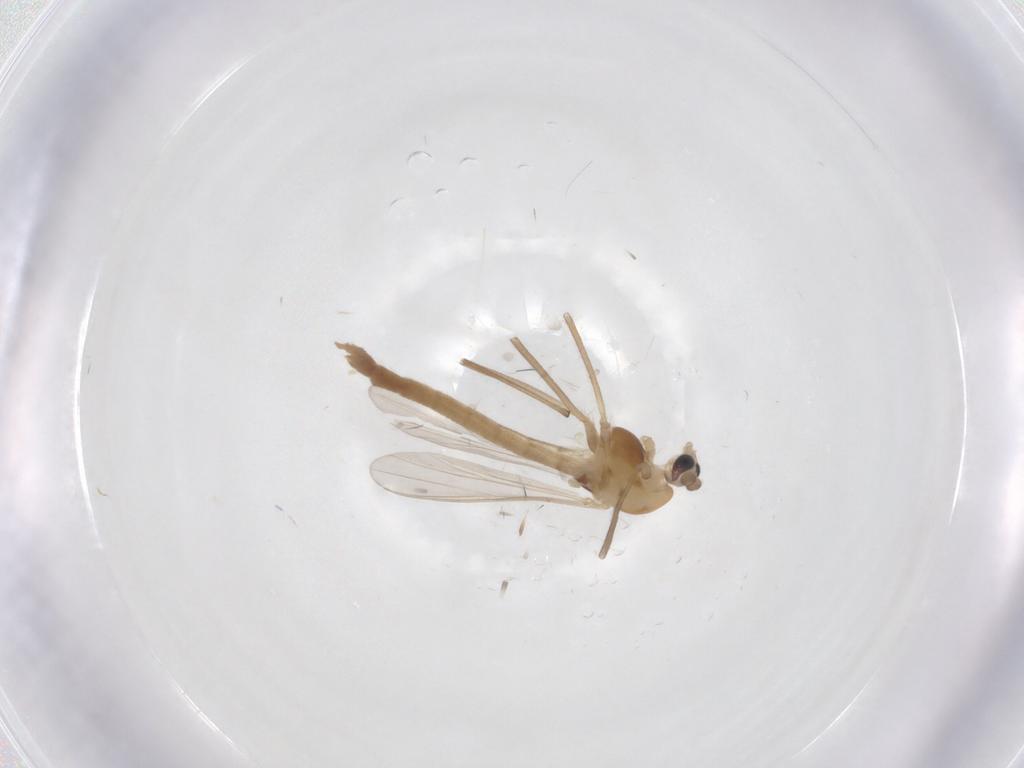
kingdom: Animalia
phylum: Arthropoda
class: Insecta
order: Diptera
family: Chironomidae
